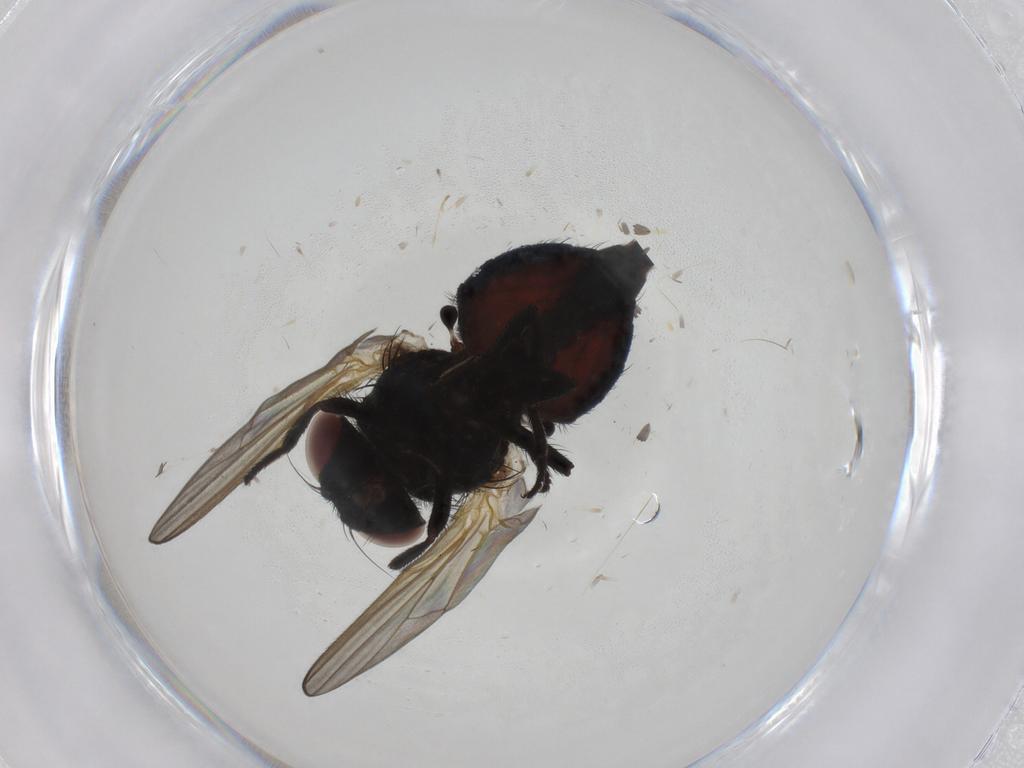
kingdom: Animalia
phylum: Arthropoda
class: Insecta
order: Diptera
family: Lonchaeidae
